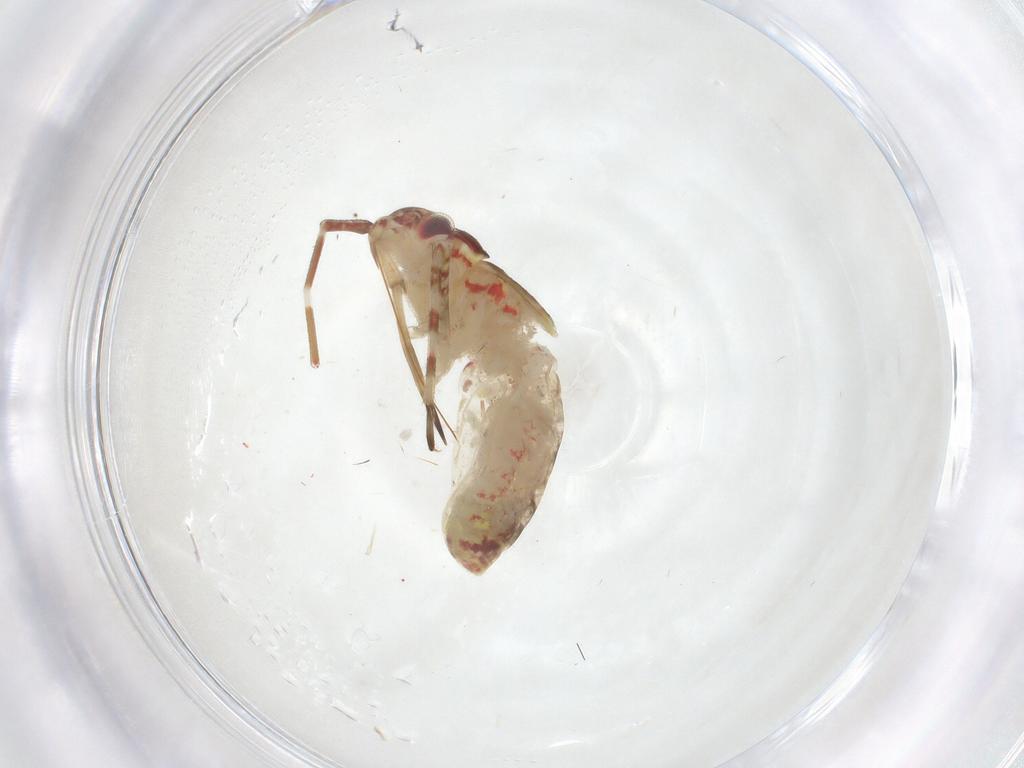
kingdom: Animalia
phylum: Arthropoda
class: Insecta
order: Hemiptera
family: Miridae
